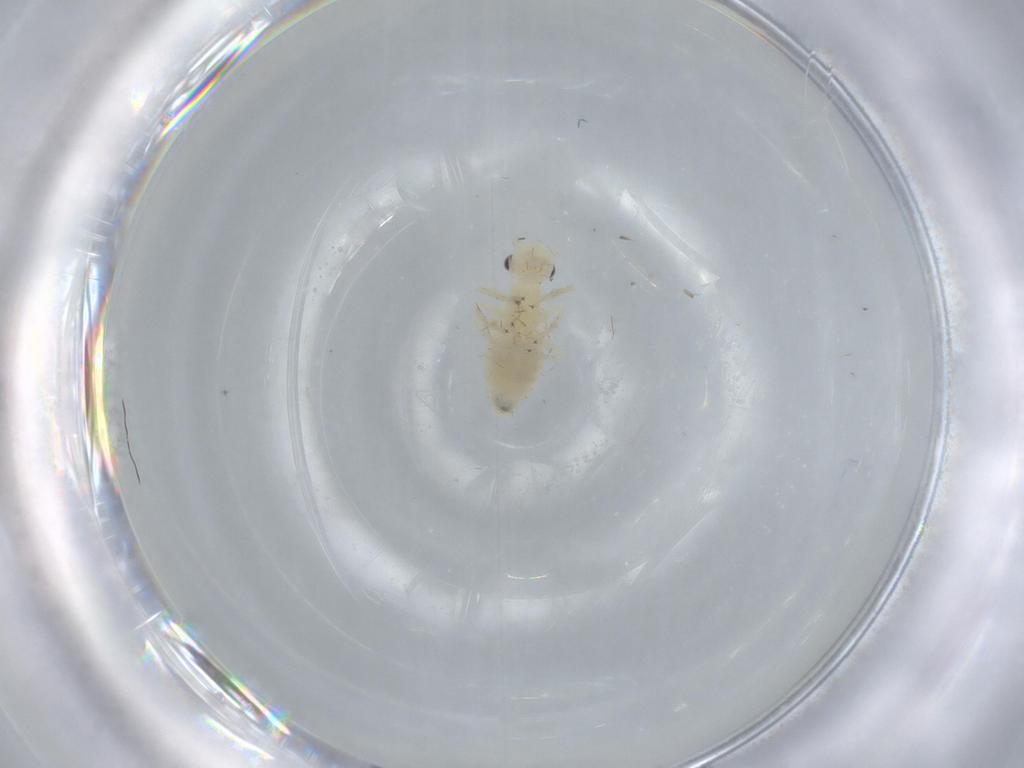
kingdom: Animalia
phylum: Arthropoda
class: Insecta
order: Psocodea
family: Caeciliusidae
